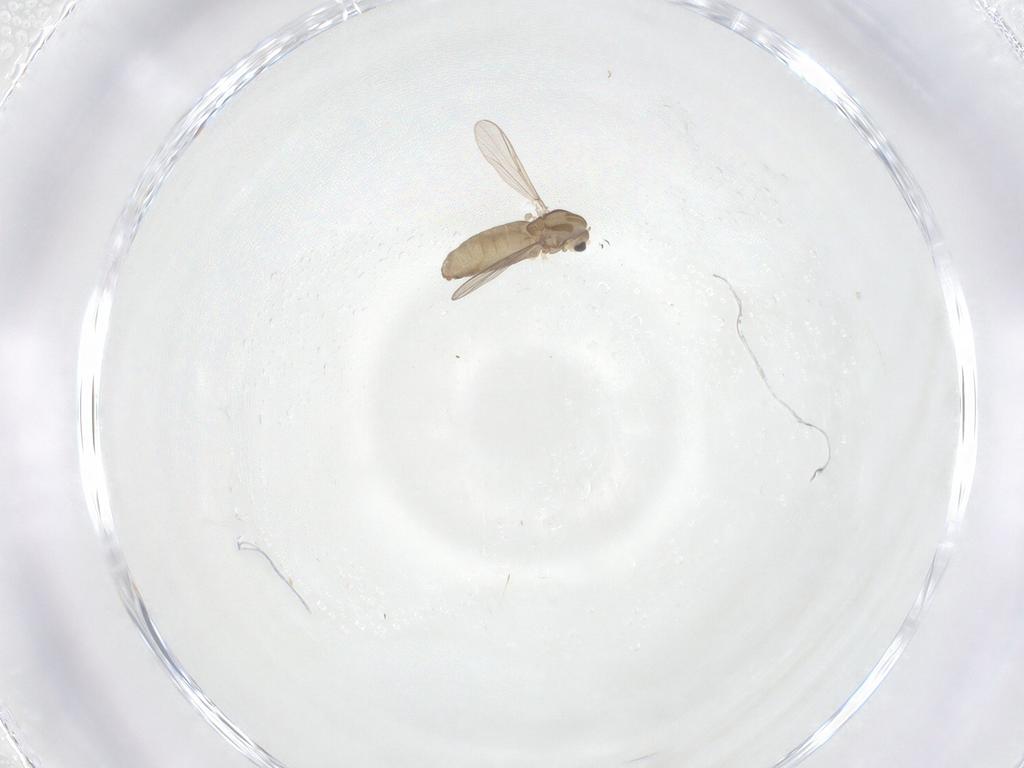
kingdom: Animalia
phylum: Arthropoda
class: Insecta
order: Diptera
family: Chironomidae
